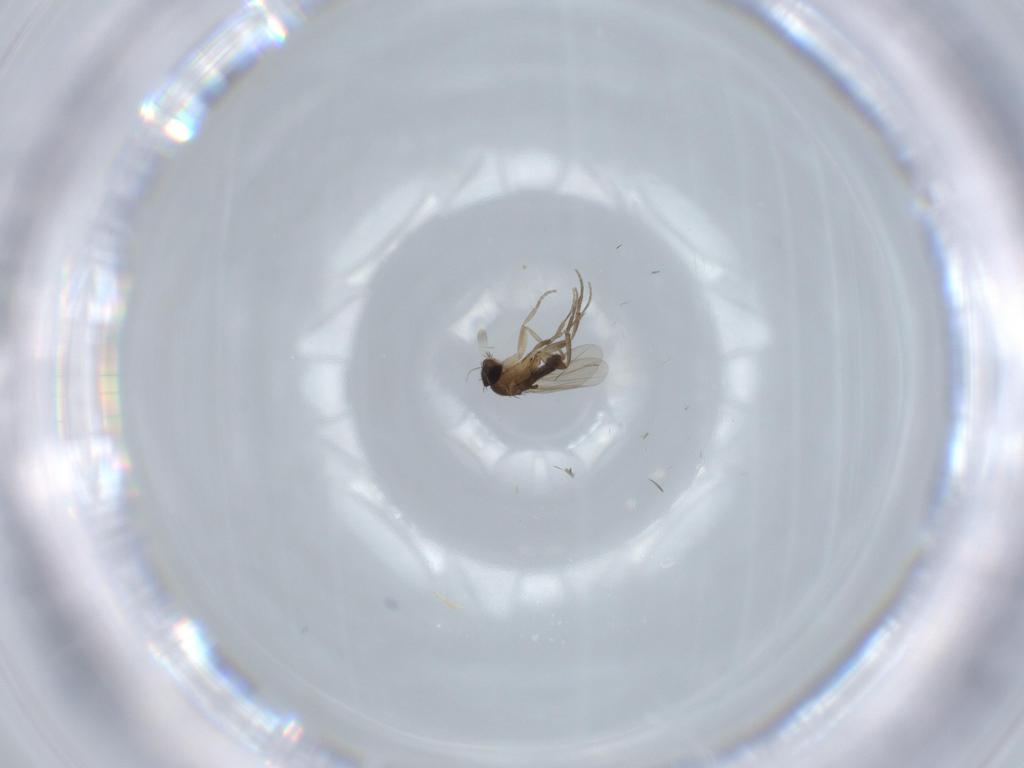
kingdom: Animalia
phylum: Arthropoda
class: Insecta
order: Diptera
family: Phoridae
